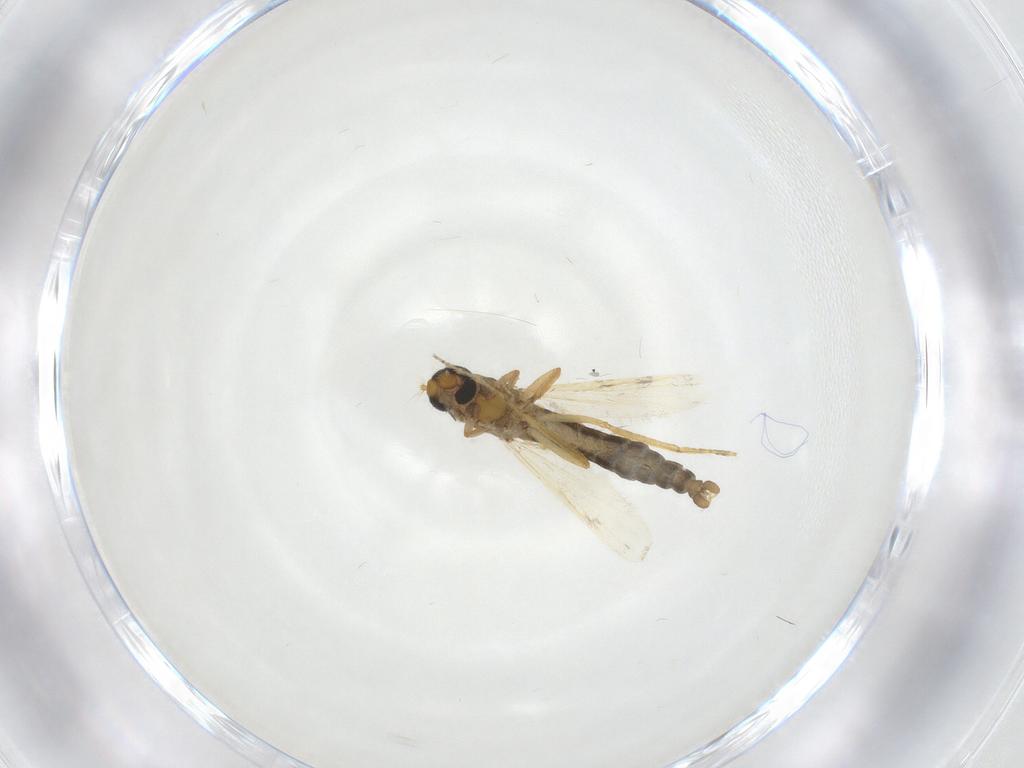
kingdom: Animalia
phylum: Arthropoda
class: Insecta
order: Diptera
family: Ceratopogonidae
